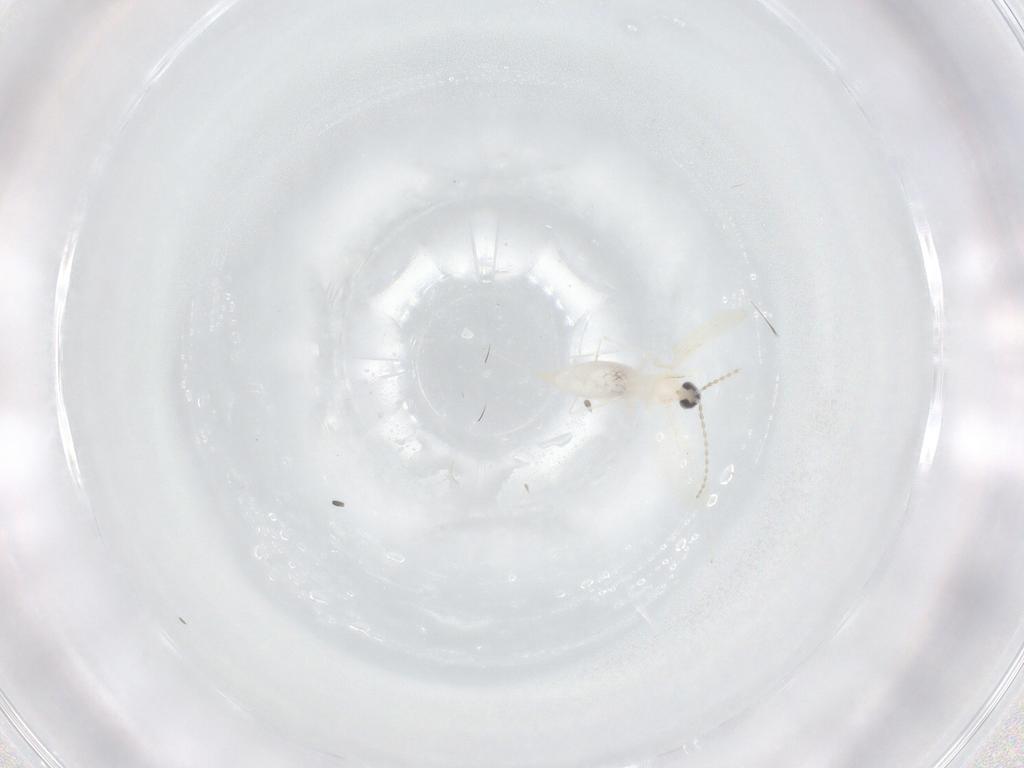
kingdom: Animalia
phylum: Arthropoda
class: Insecta
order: Diptera
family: Cecidomyiidae
